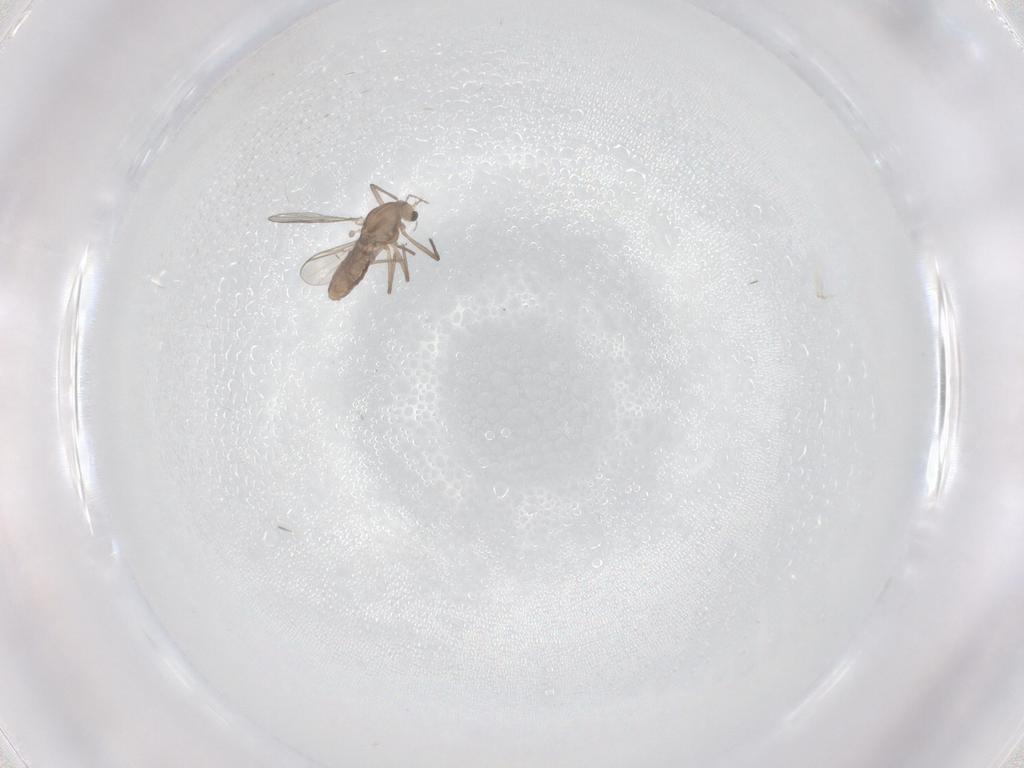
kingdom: Animalia
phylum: Arthropoda
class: Insecta
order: Diptera
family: Chironomidae
